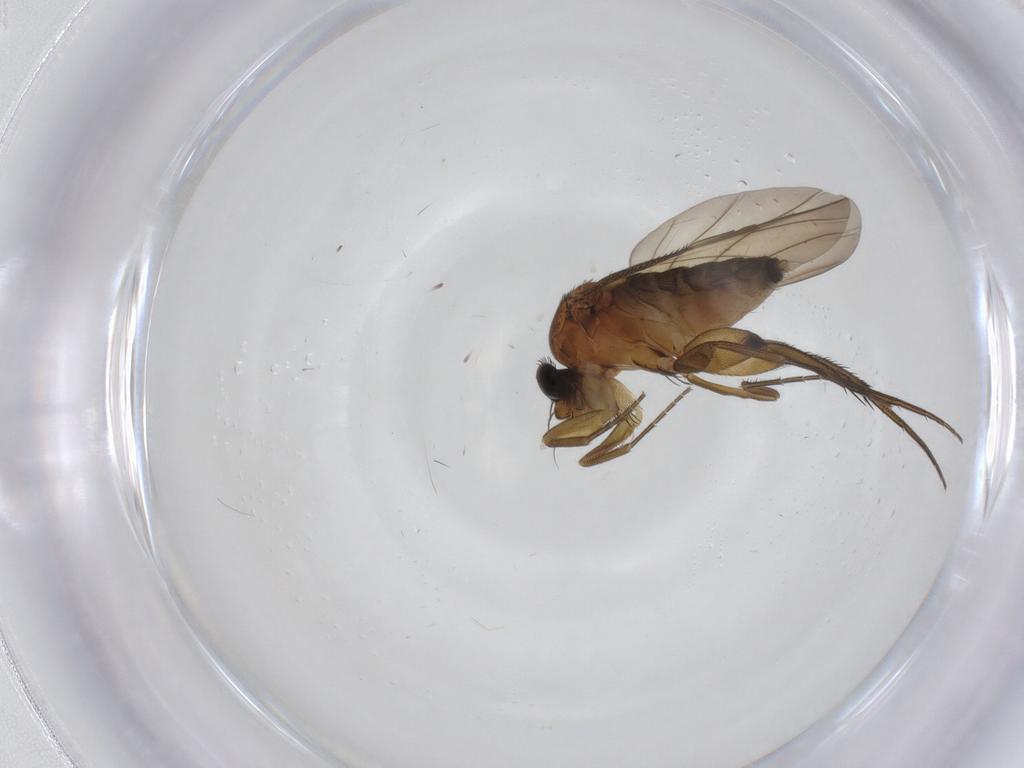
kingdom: Animalia
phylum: Arthropoda
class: Insecta
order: Diptera
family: Phoridae
